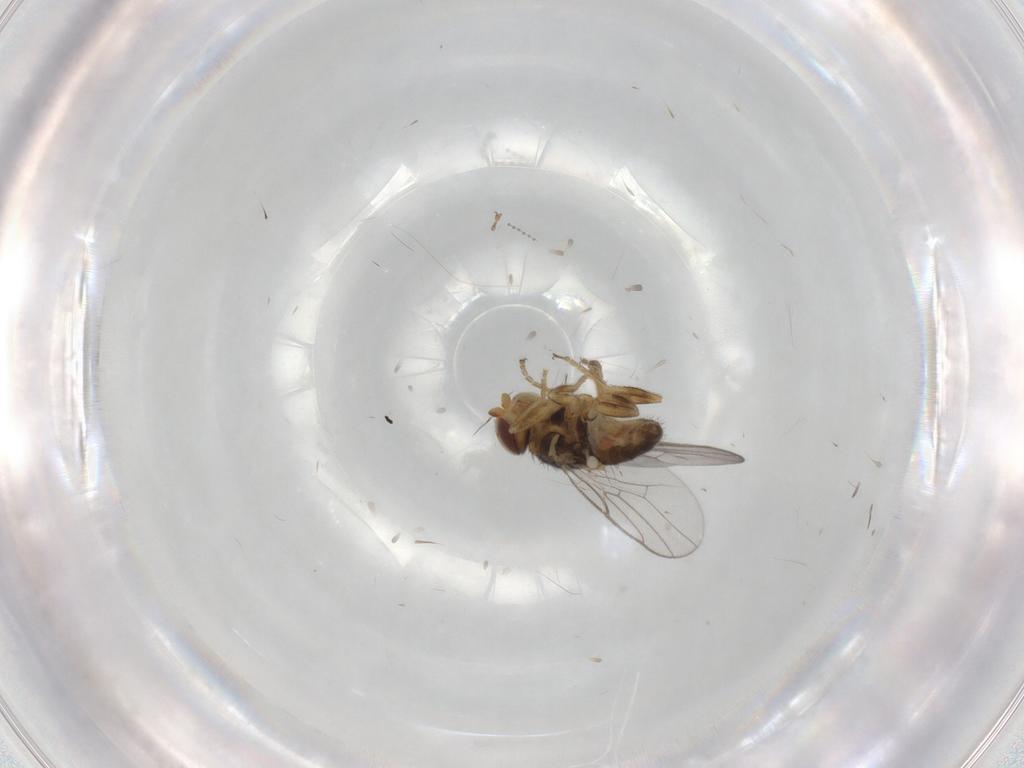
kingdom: Animalia
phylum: Arthropoda
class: Insecta
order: Diptera
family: Chloropidae
